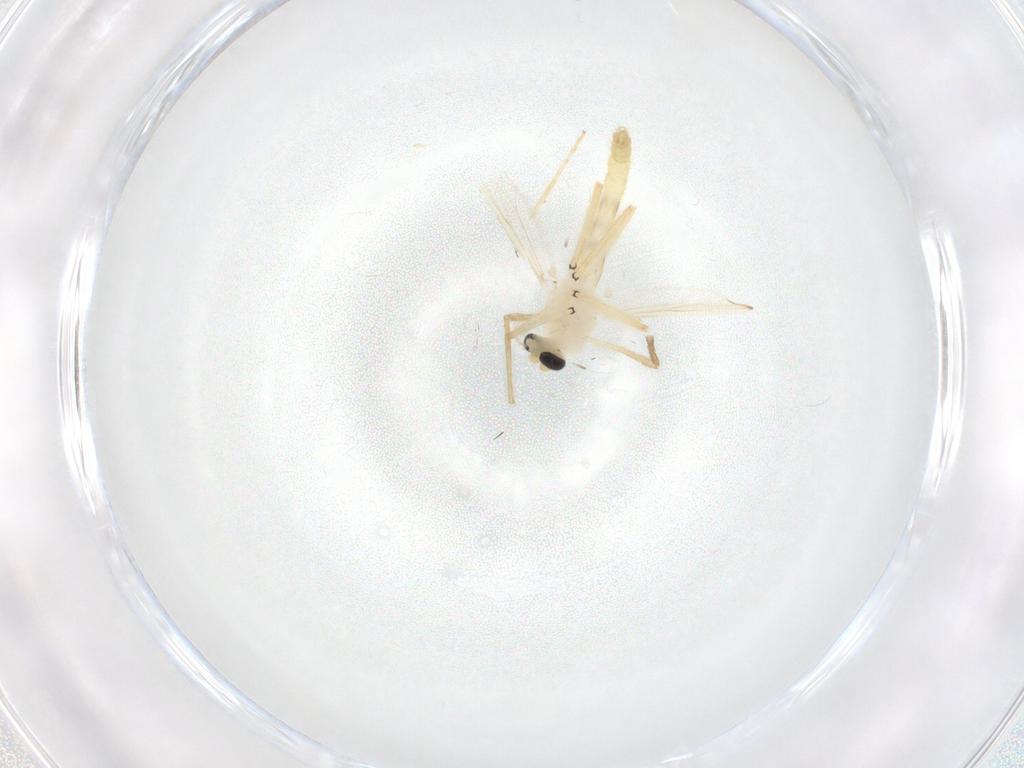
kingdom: Animalia
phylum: Arthropoda
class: Insecta
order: Diptera
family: Chironomidae
